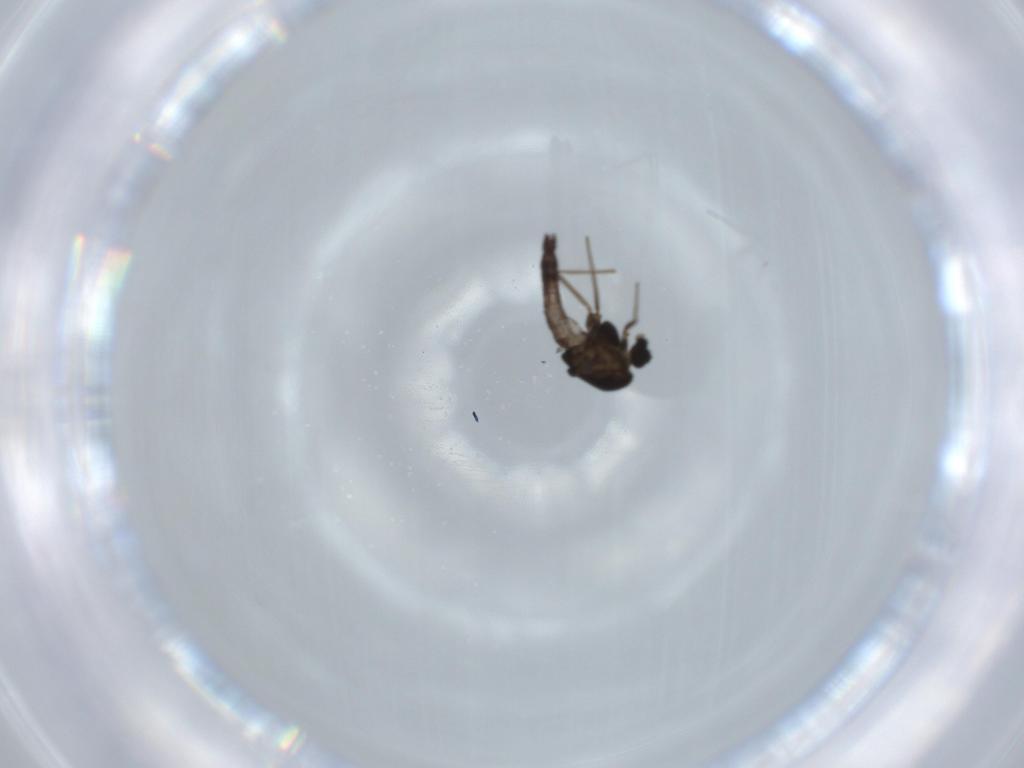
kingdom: Animalia
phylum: Arthropoda
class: Insecta
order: Diptera
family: Chironomidae
